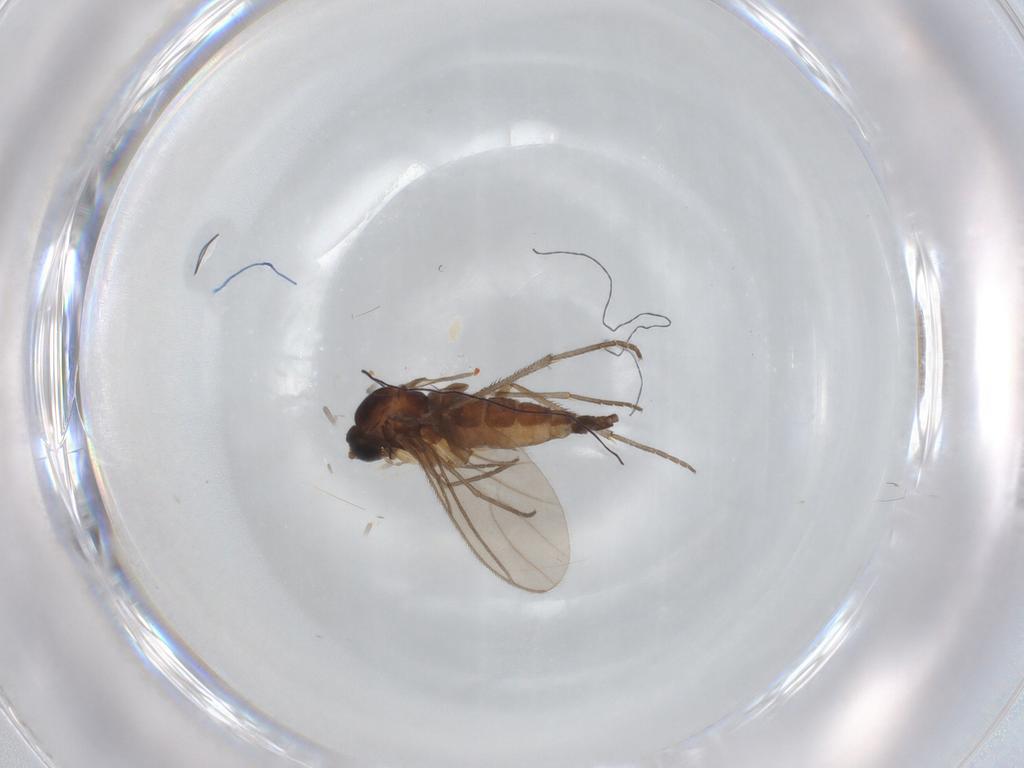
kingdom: Animalia
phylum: Arthropoda
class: Insecta
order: Diptera
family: Sciaridae
